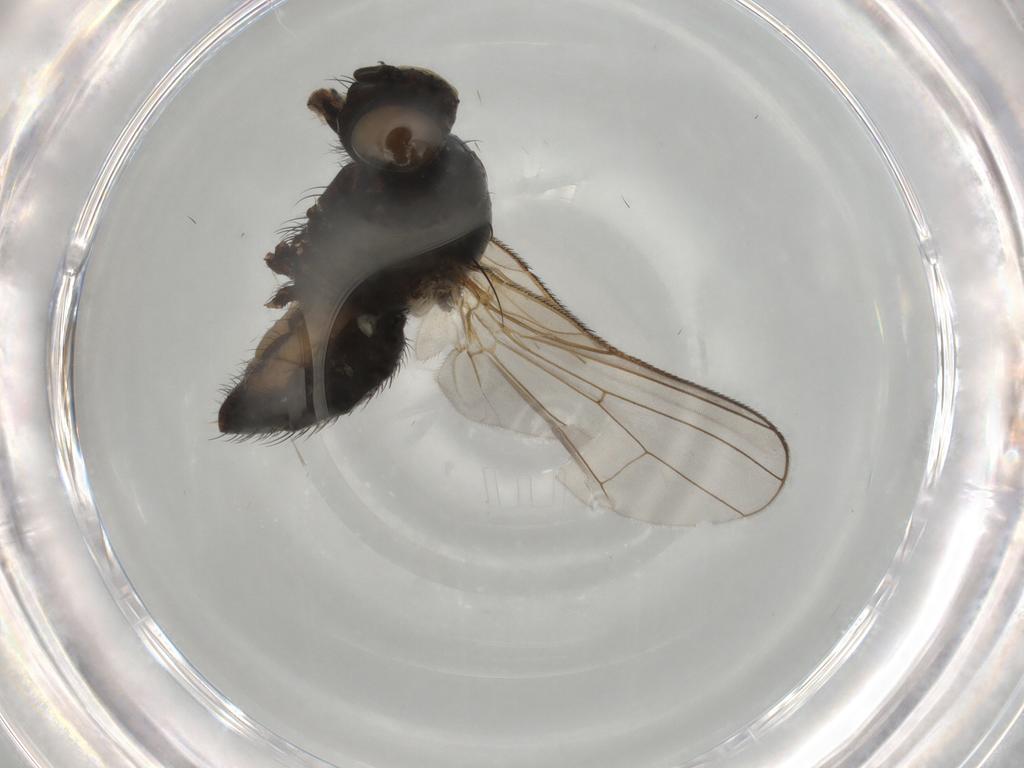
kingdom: Animalia
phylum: Arthropoda
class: Insecta
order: Diptera
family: Anthomyiidae
